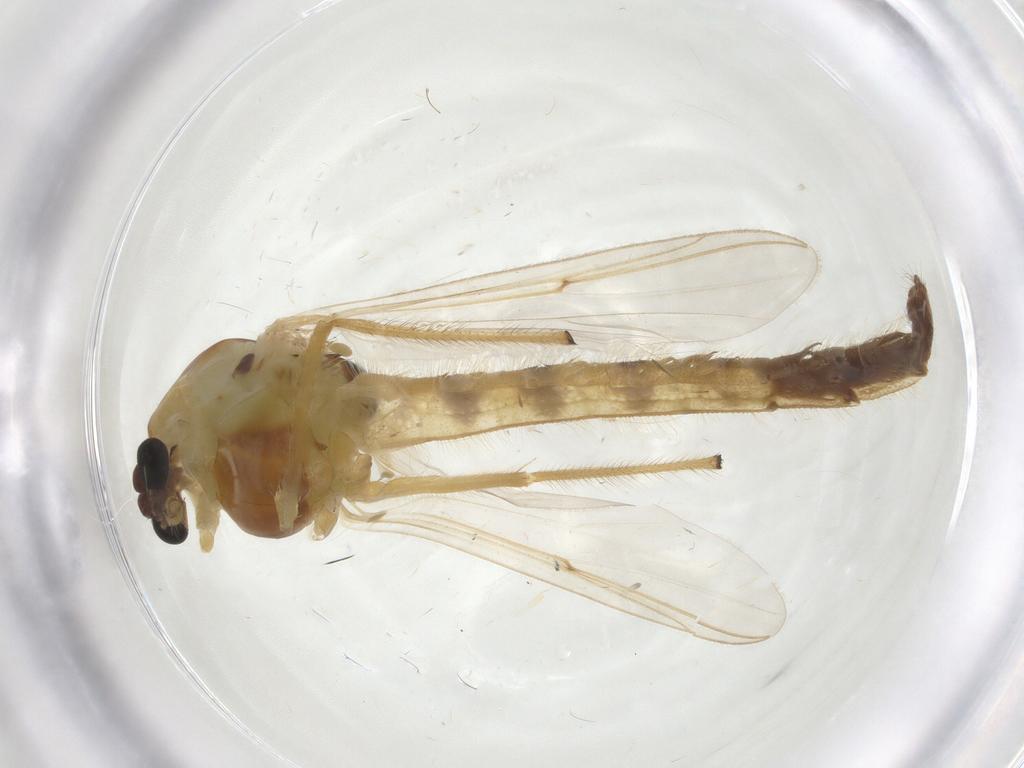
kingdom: Animalia
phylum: Arthropoda
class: Insecta
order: Diptera
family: Chironomidae
